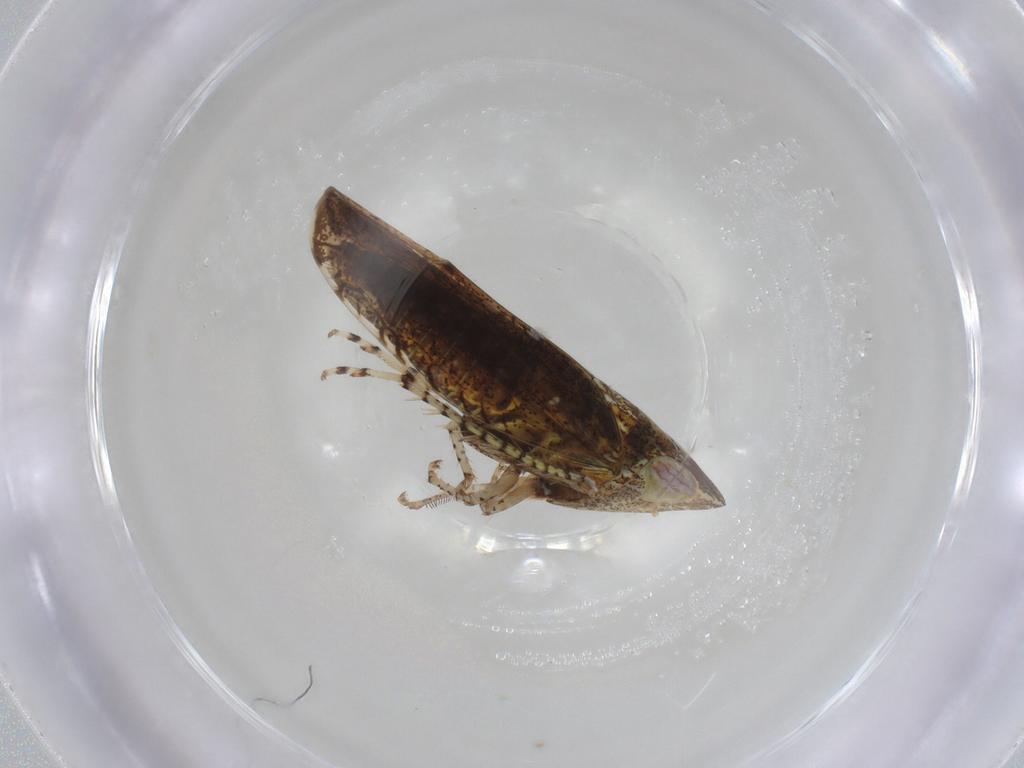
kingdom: Animalia
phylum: Arthropoda
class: Insecta
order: Hemiptera
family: Cicadellidae
